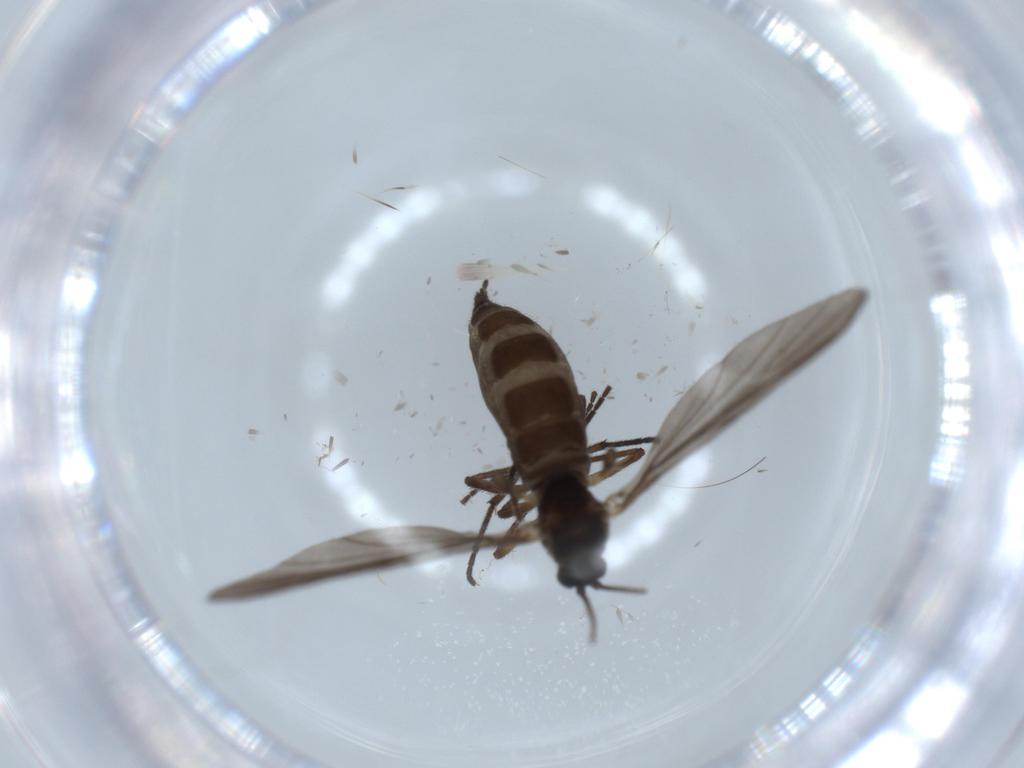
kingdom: Animalia
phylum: Arthropoda
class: Insecta
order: Diptera
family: Sciaridae
